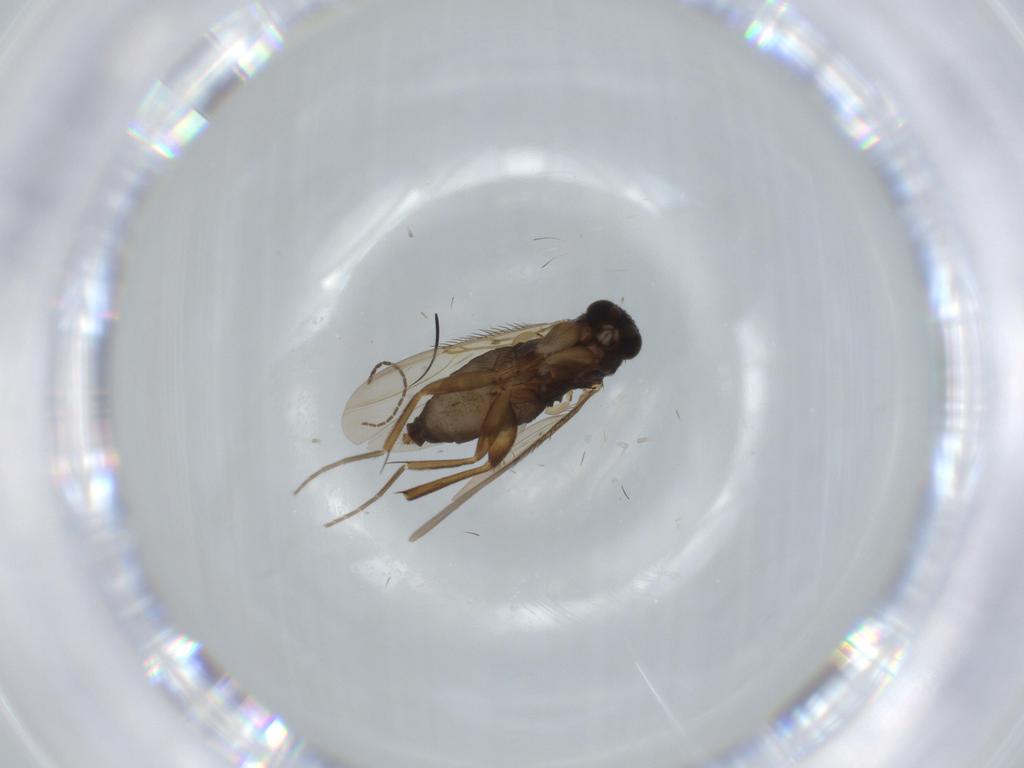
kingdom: Animalia
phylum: Arthropoda
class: Insecta
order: Diptera
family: Phoridae
